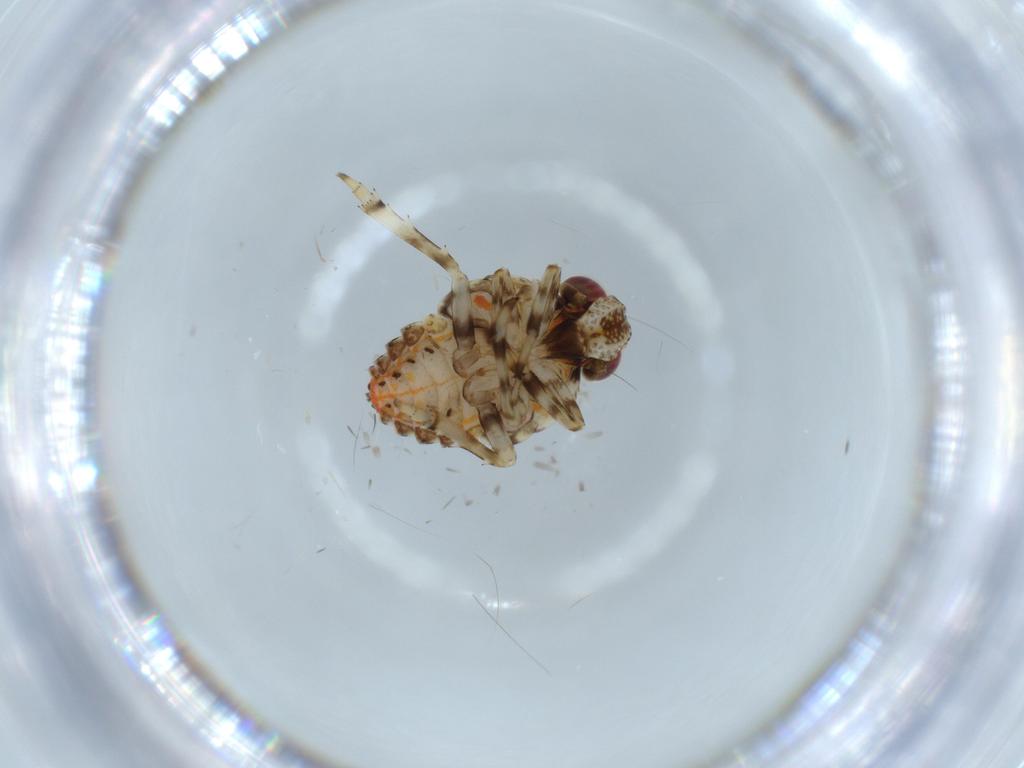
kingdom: Animalia
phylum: Arthropoda
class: Insecta
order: Hemiptera
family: Issidae
